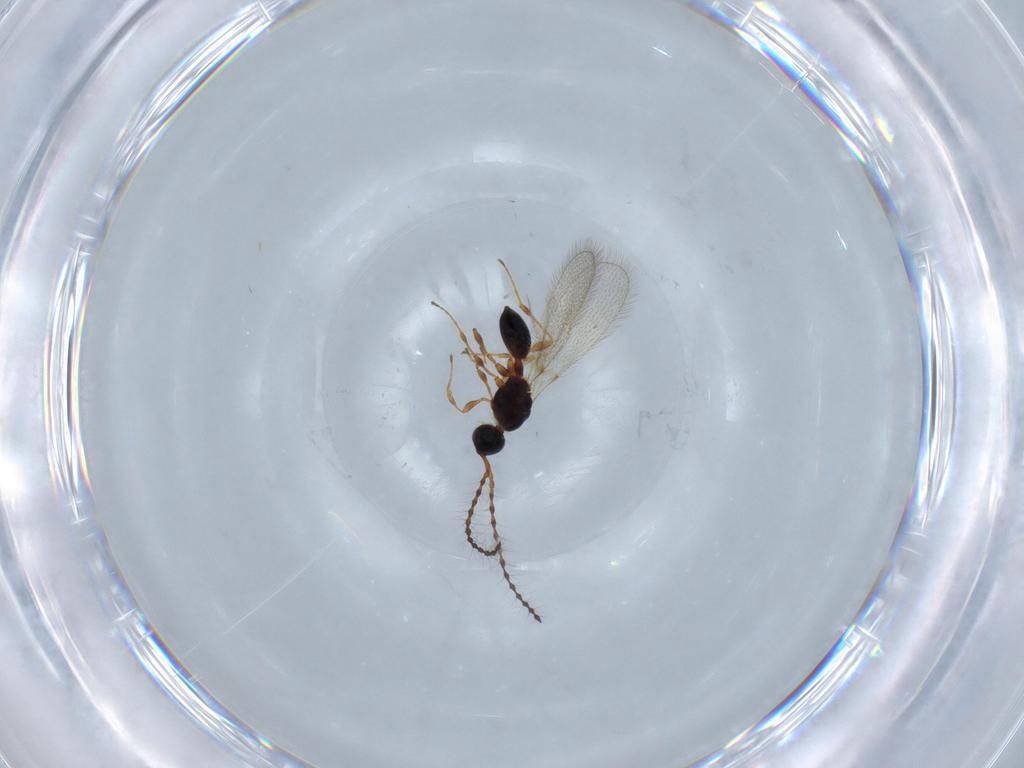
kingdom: Animalia
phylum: Arthropoda
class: Insecta
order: Hymenoptera
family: Diapriidae
